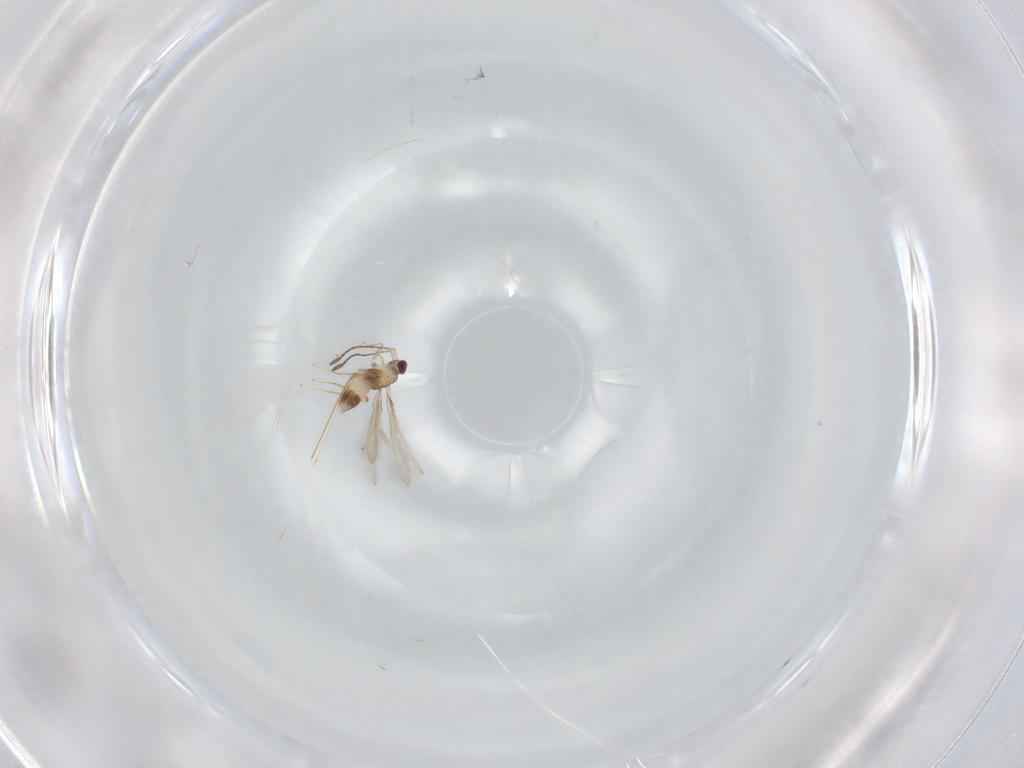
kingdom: Animalia
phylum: Arthropoda
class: Insecta
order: Hymenoptera
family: Mymaridae
